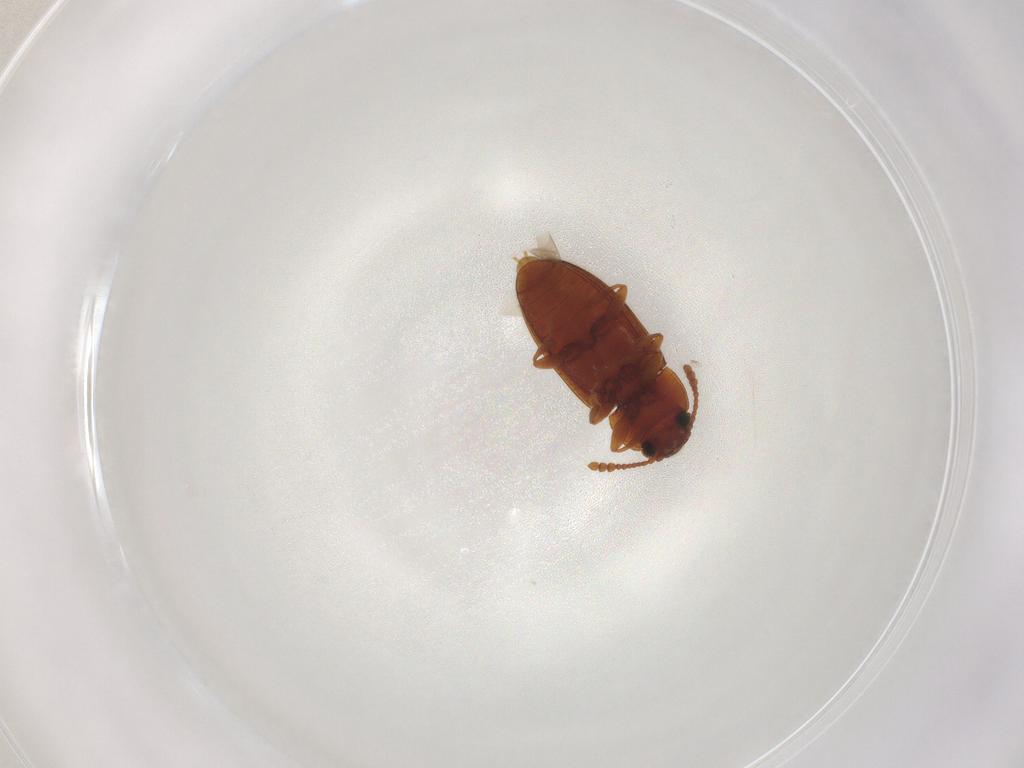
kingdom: Animalia
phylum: Arthropoda
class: Insecta
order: Coleoptera
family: Erotylidae
